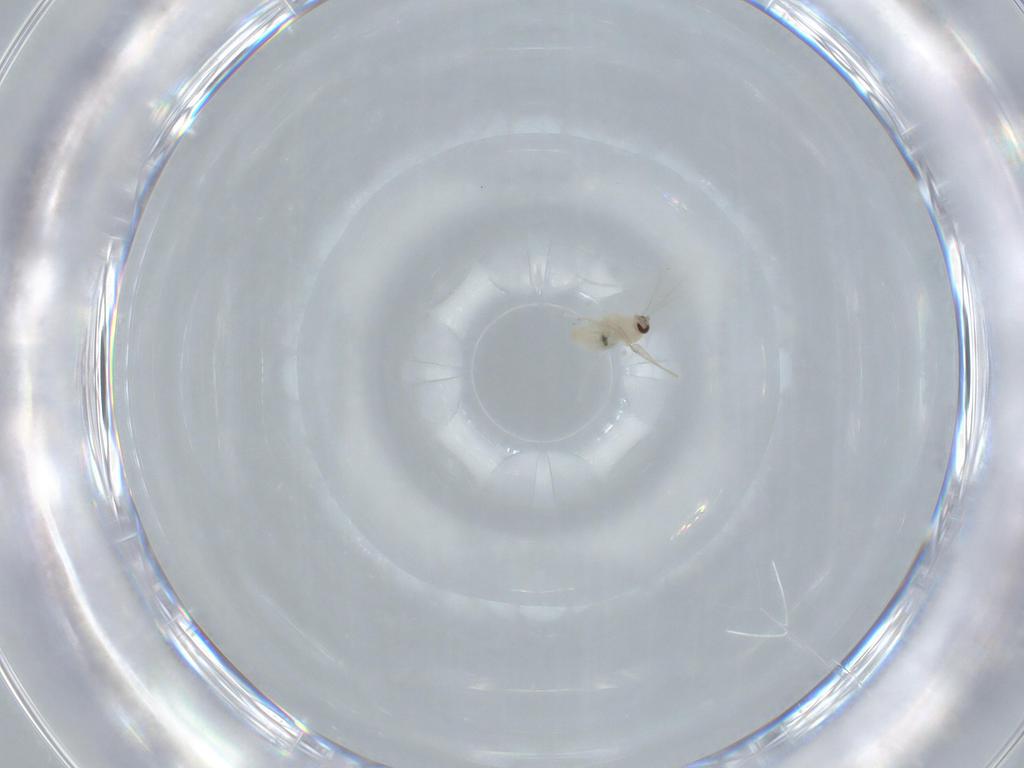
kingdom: Animalia
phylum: Arthropoda
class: Insecta
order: Diptera
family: Cecidomyiidae
